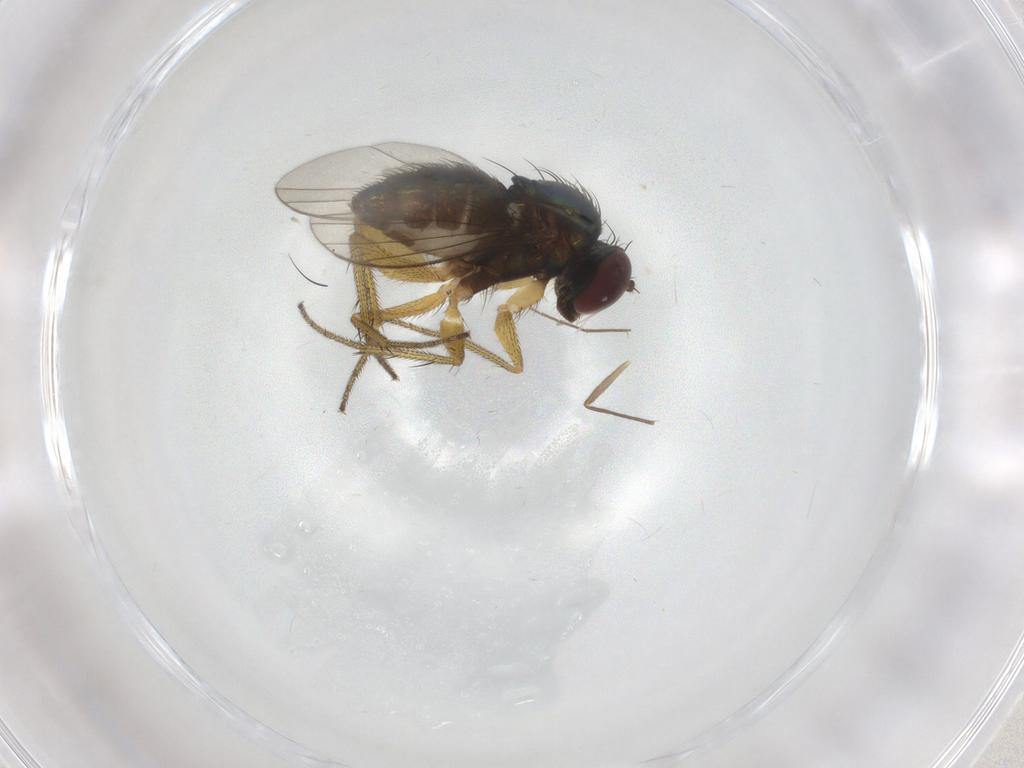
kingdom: Animalia
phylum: Arthropoda
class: Insecta
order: Diptera
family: Chironomidae
